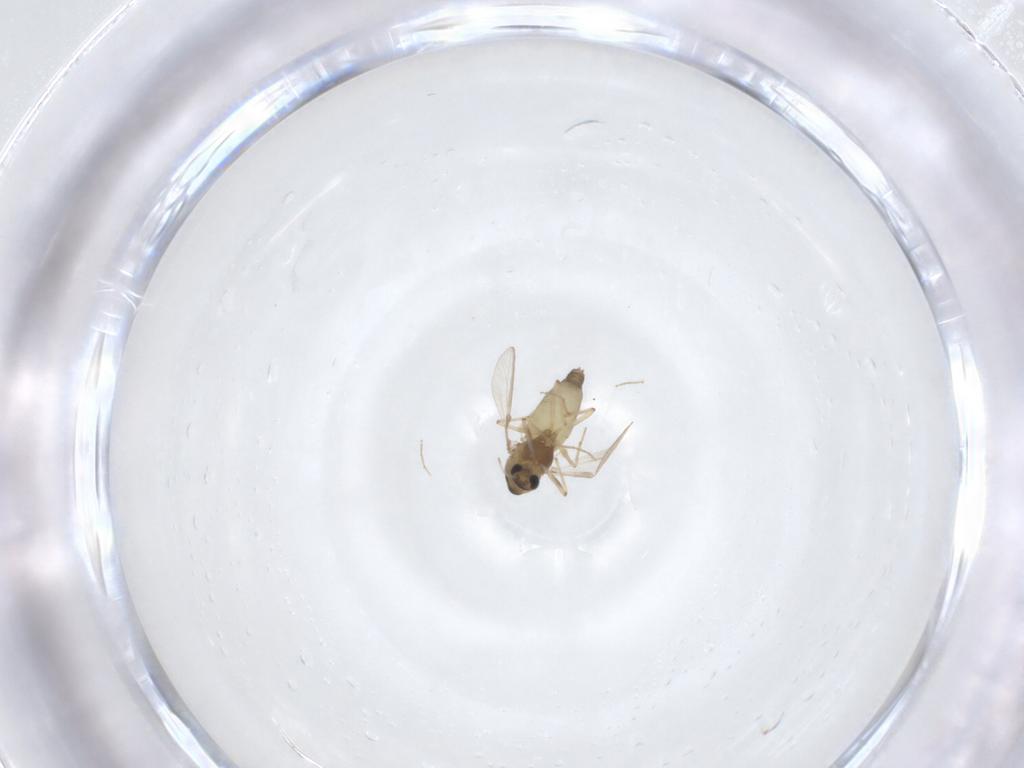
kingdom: Animalia
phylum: Arthropoda
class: Insecta
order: Diptera
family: Chironomidae
